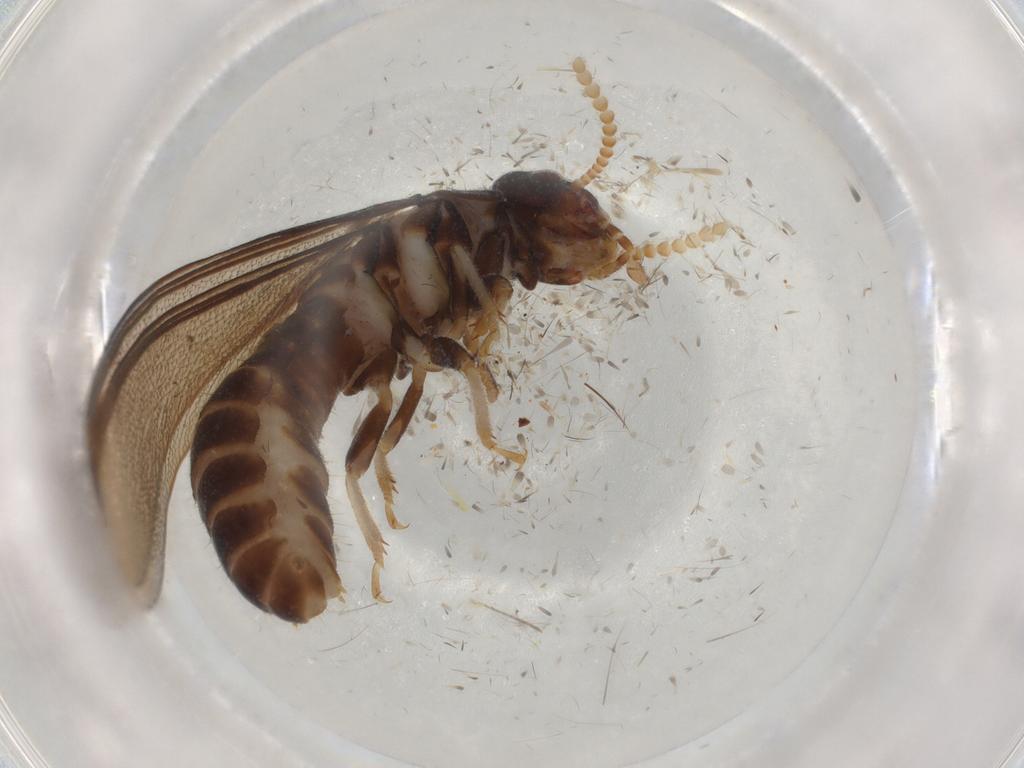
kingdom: Animalia
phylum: Arthropoda
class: Insecta
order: Blattodea
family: Kalotermitidae
